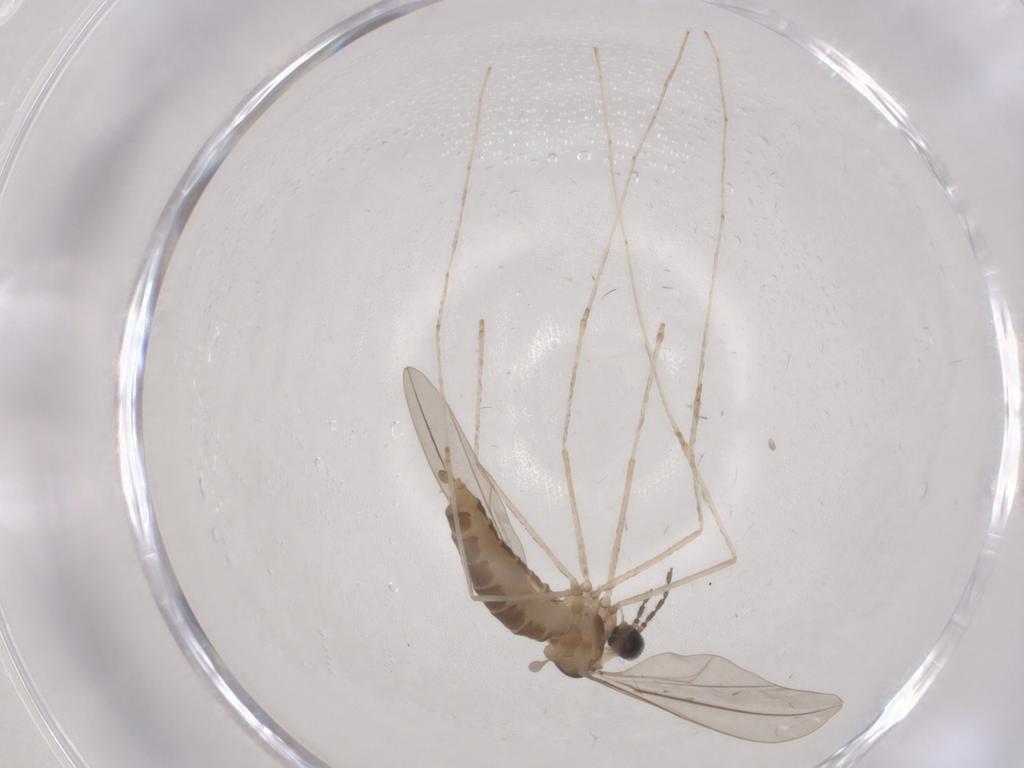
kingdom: Animalia
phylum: Arthropoda
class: Insecta
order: Diptera
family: Cecidomyiidae
